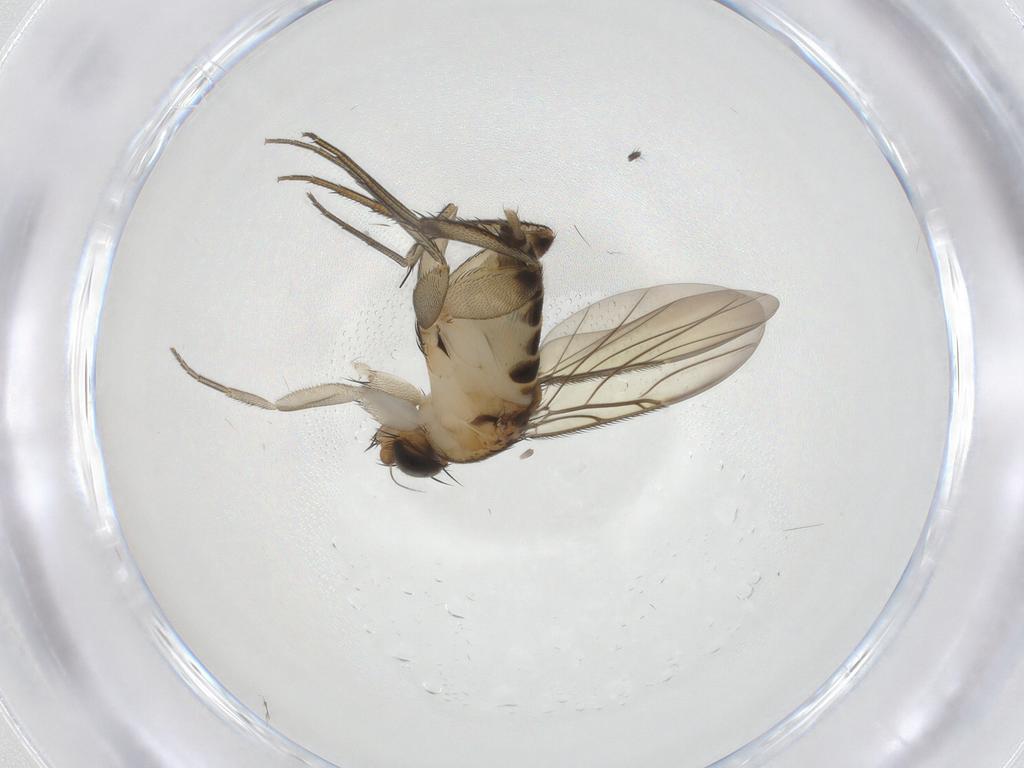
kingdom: Animalia
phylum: Arthropoda
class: Insecta
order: Diptera
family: Phoridae
